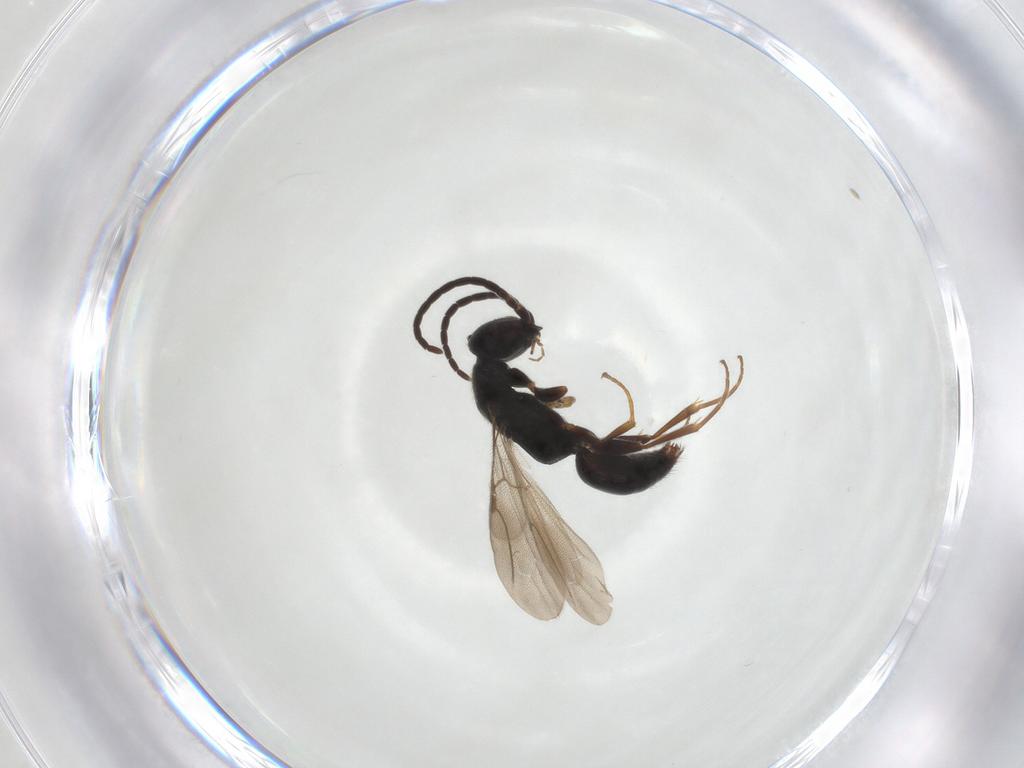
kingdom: Animalia
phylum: Arthropoda
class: Insecta
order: Hymenoptera
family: Bethylidae
